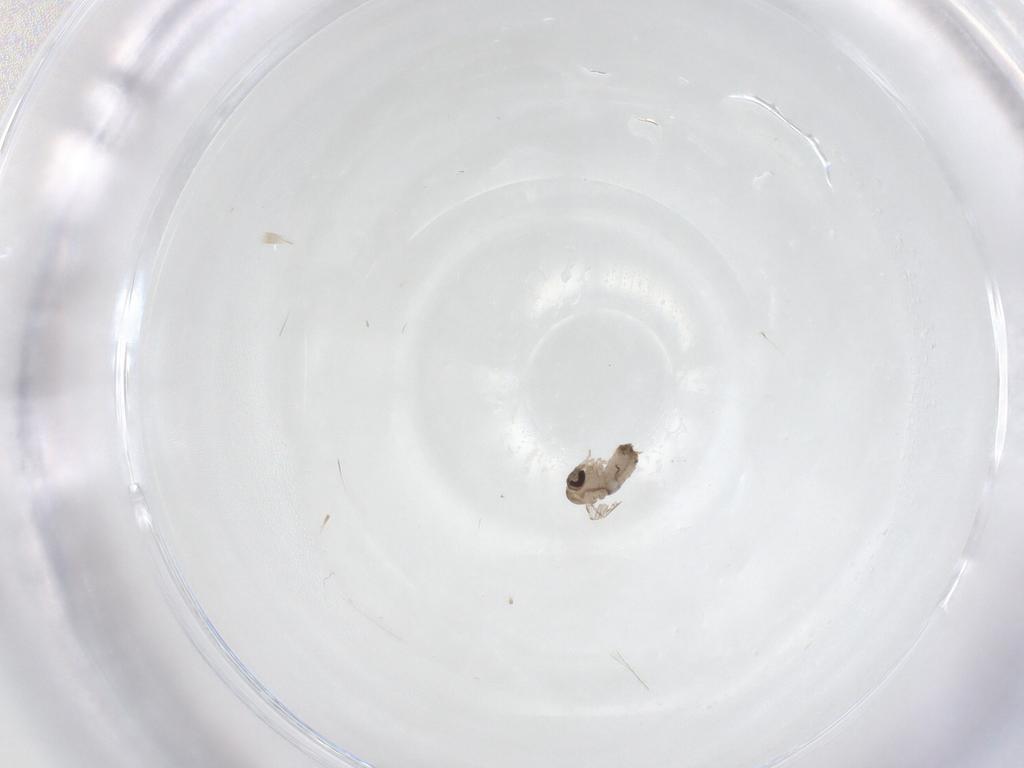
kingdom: Animalia
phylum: Arthropoda
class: Insecta
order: Diptera
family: Psychodidae
